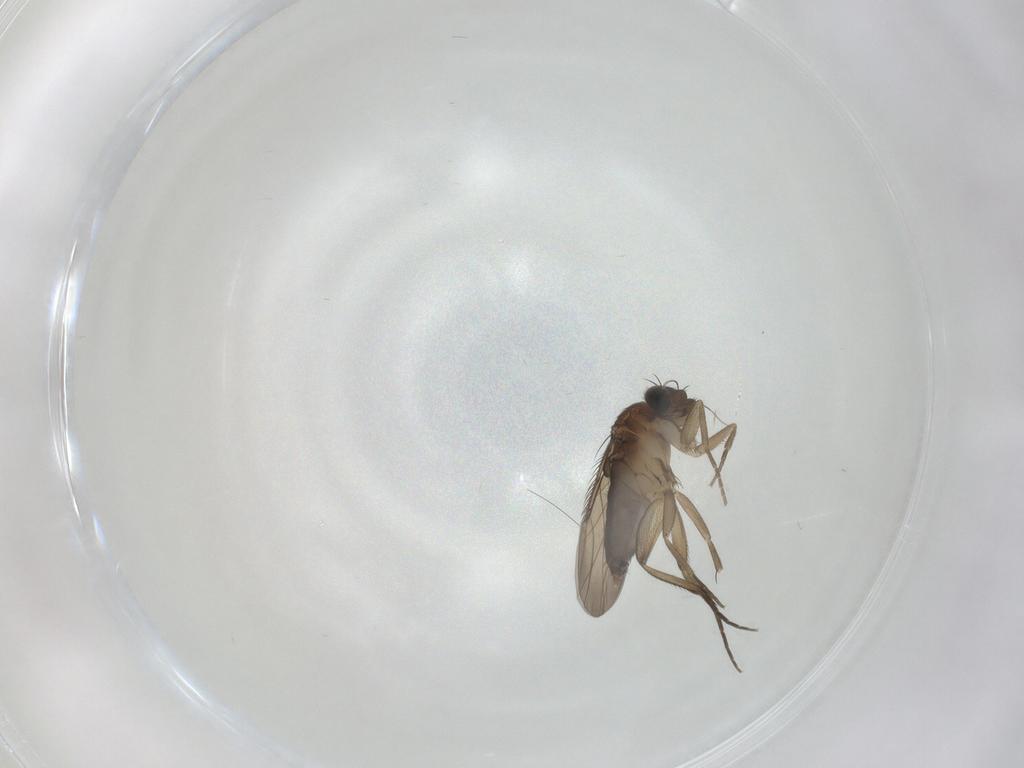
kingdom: Animalia
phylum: Arthropoda
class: Insecta
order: Diptera
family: Phoridae
